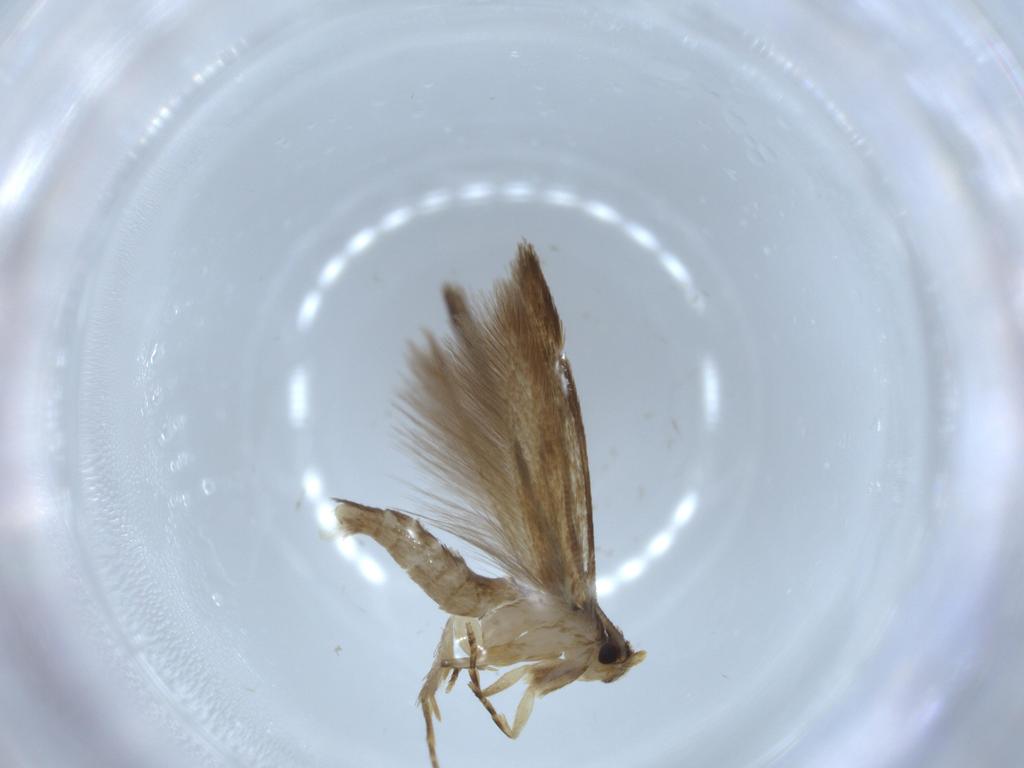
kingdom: Animalia
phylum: Arthropoda
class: Insecta
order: Lepidoptera
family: Tineidae
